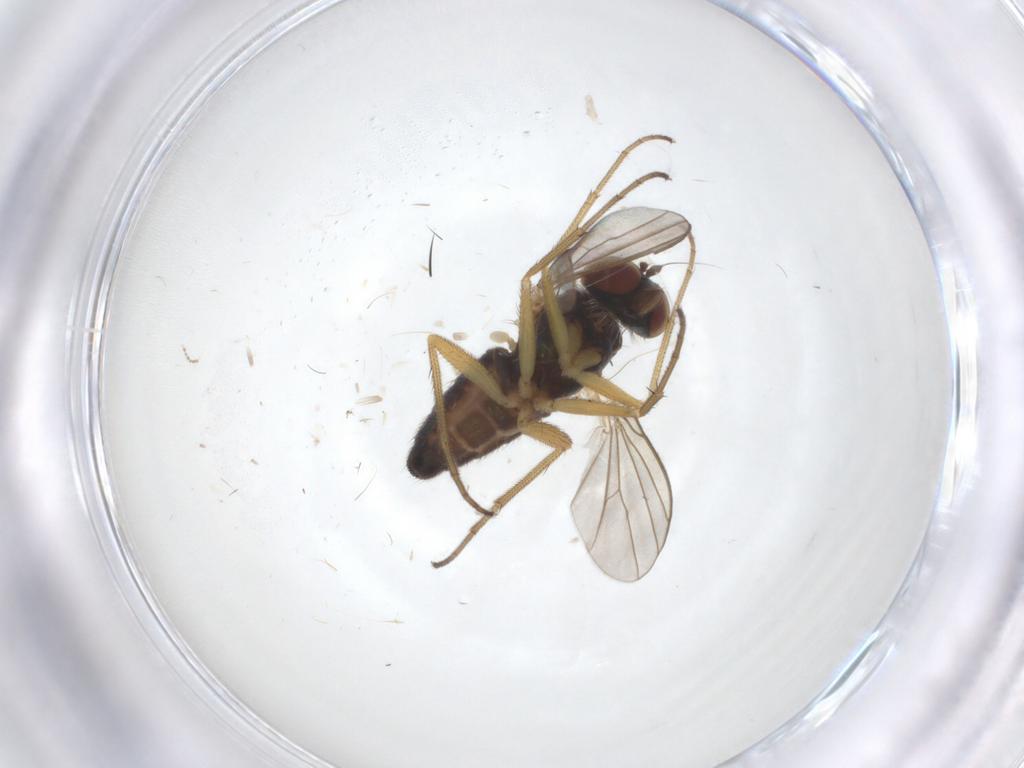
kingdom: Animalia
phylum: Arthropoda
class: Insecta
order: Diptera
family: Dolichopodidae
